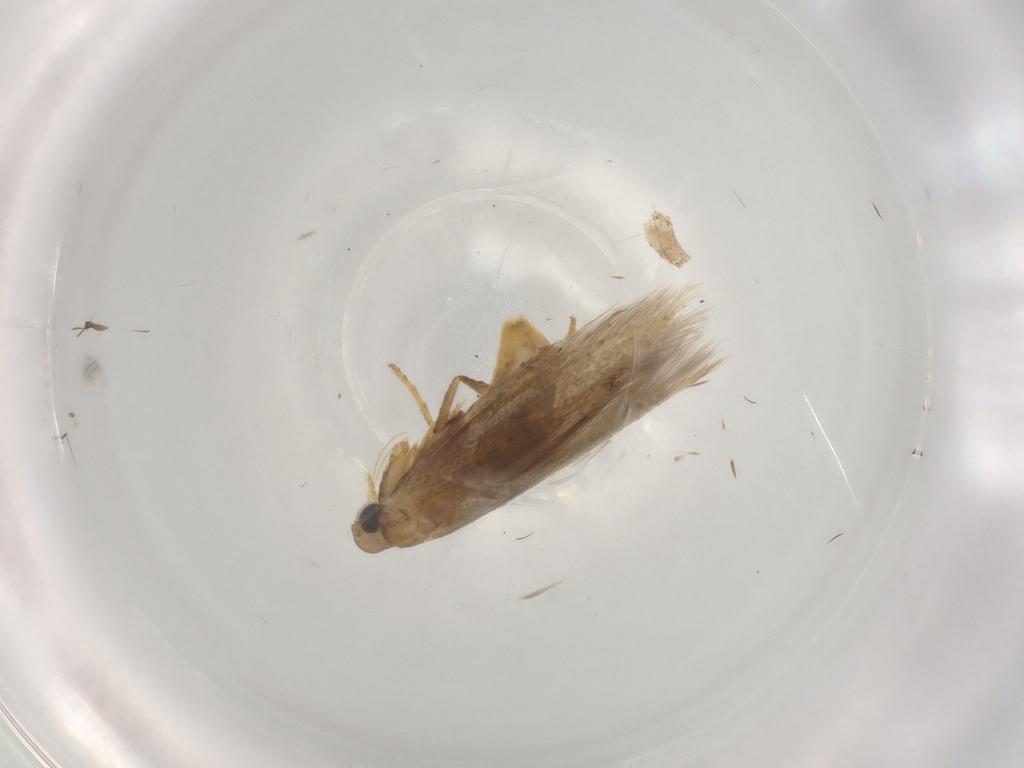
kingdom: Animalia
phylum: Arthropoda
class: Insecta
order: Lepidoptera
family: Tischeriidae
